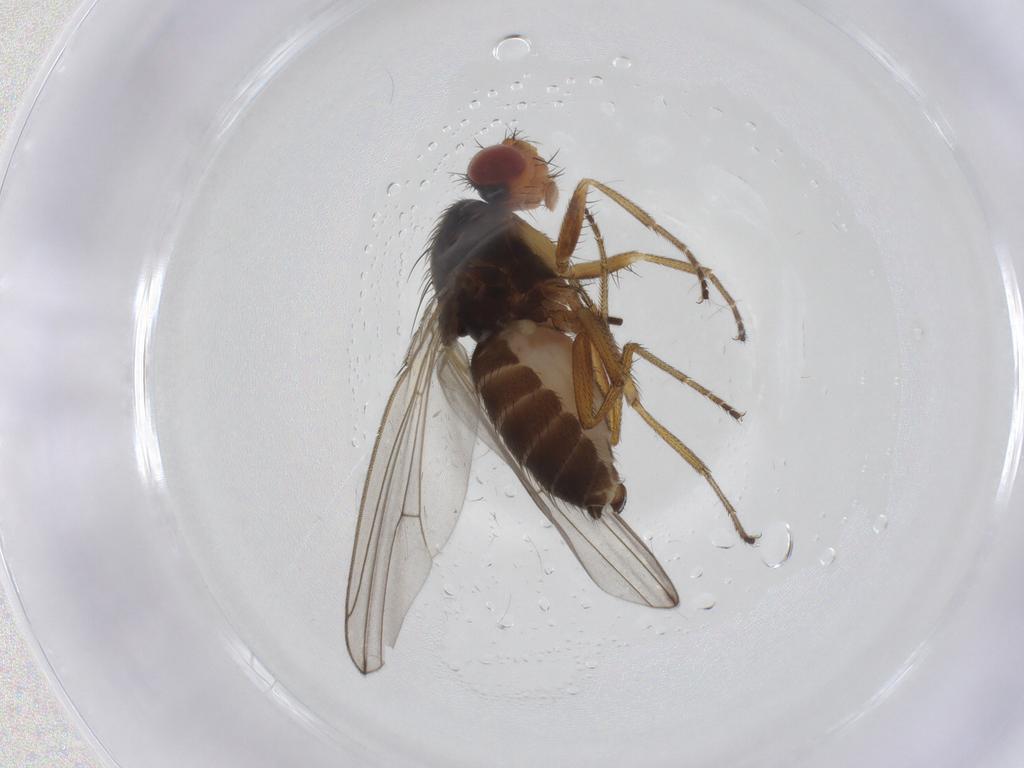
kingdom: Animalia
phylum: Arthropoda
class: Insecta
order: Diptera
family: Drosophilidae
